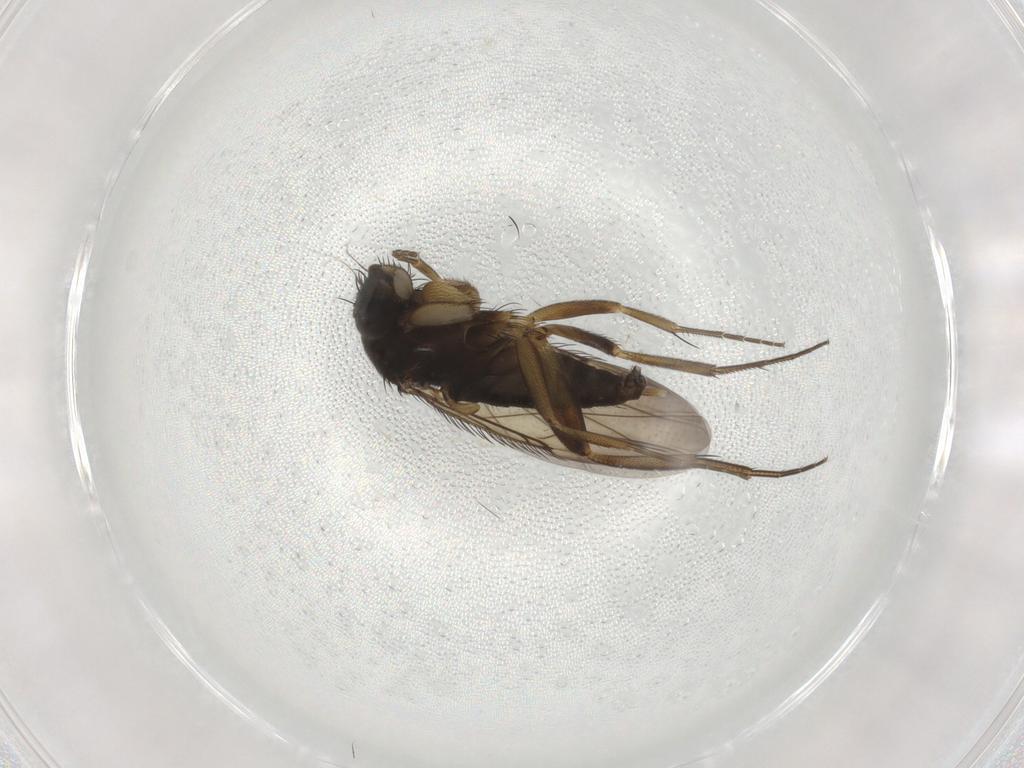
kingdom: Animalia
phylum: Arthropoda
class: Insecta
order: Diptera
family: Phoridae
